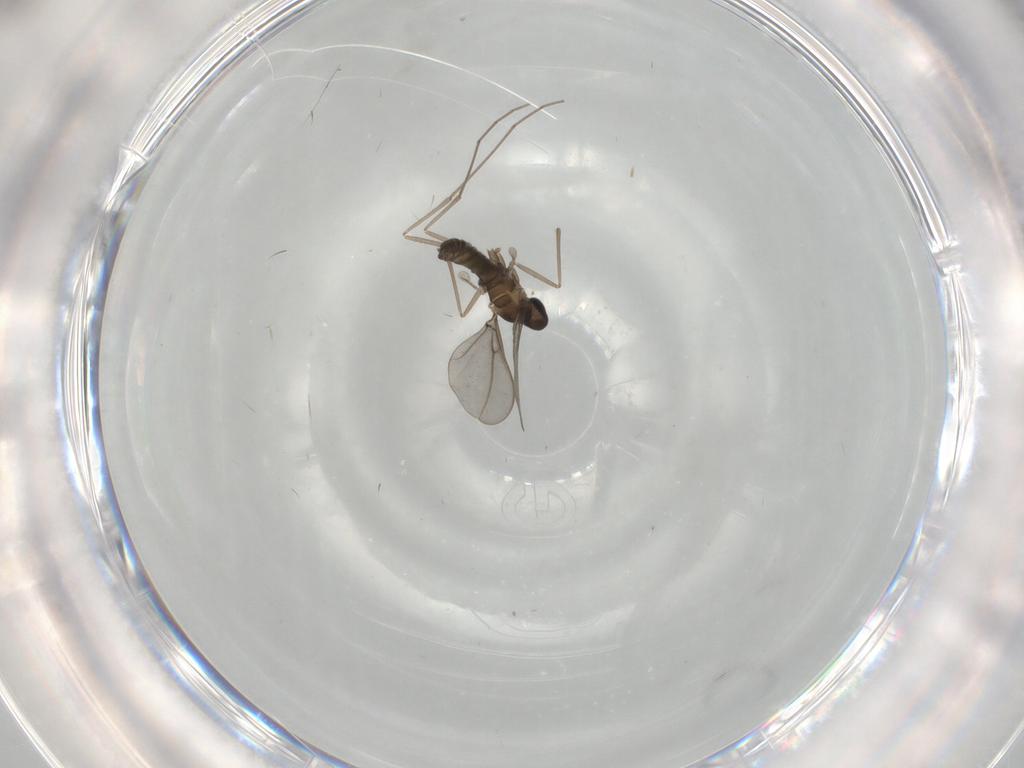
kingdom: Animalia
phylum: Arthropoda
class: Insecta
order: Diptera
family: Cecidomyiidae
